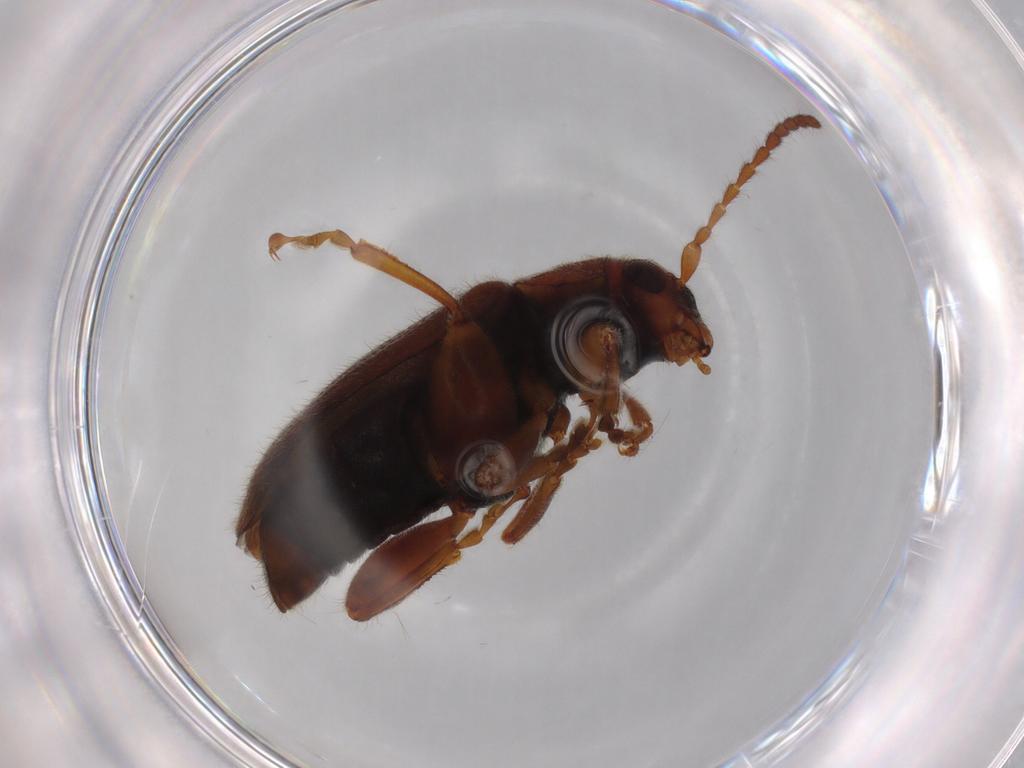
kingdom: Animalia
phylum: Arthropoda
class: Insecta
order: Coleoptera
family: Chrysomelidae
